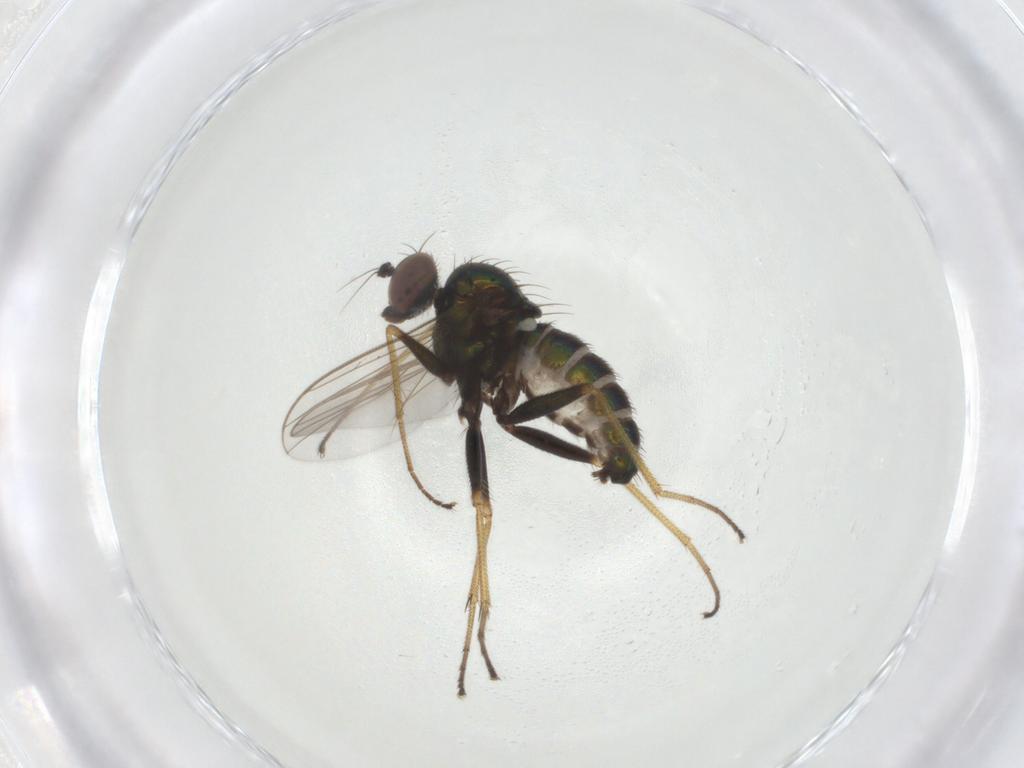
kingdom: Animalia
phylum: Arthropoda
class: Insecta
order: Diptera
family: Dolichopodidae
